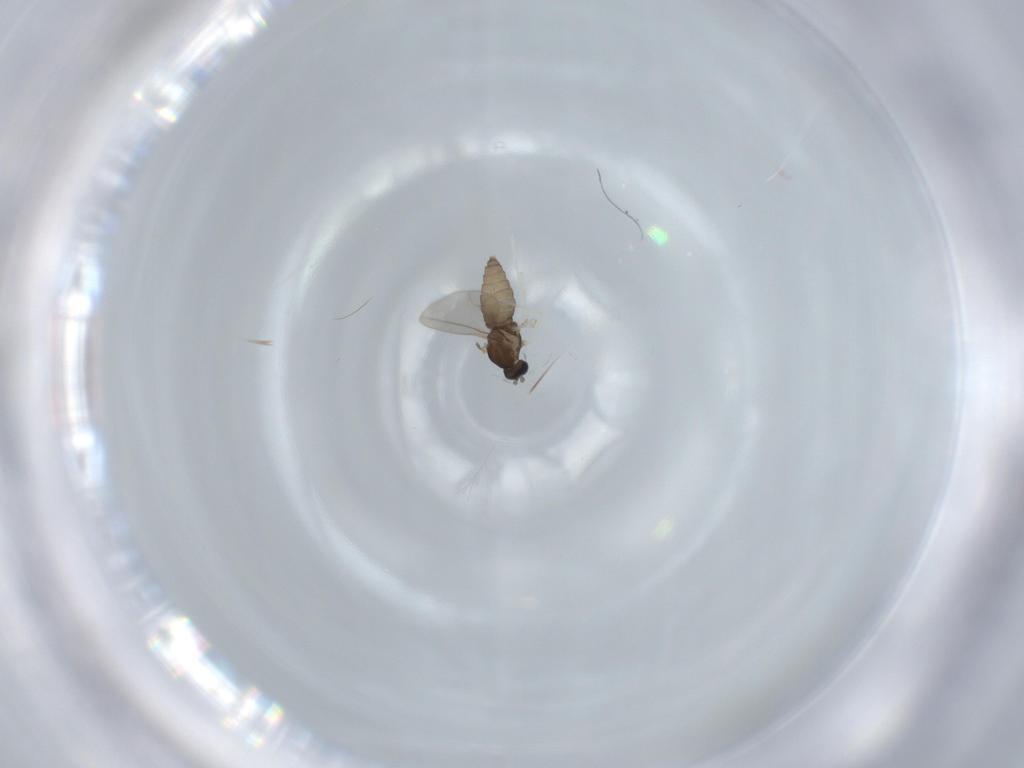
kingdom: Animalia
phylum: Arthropoda
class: Insecta
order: Diptera
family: Cecidomyiidae
